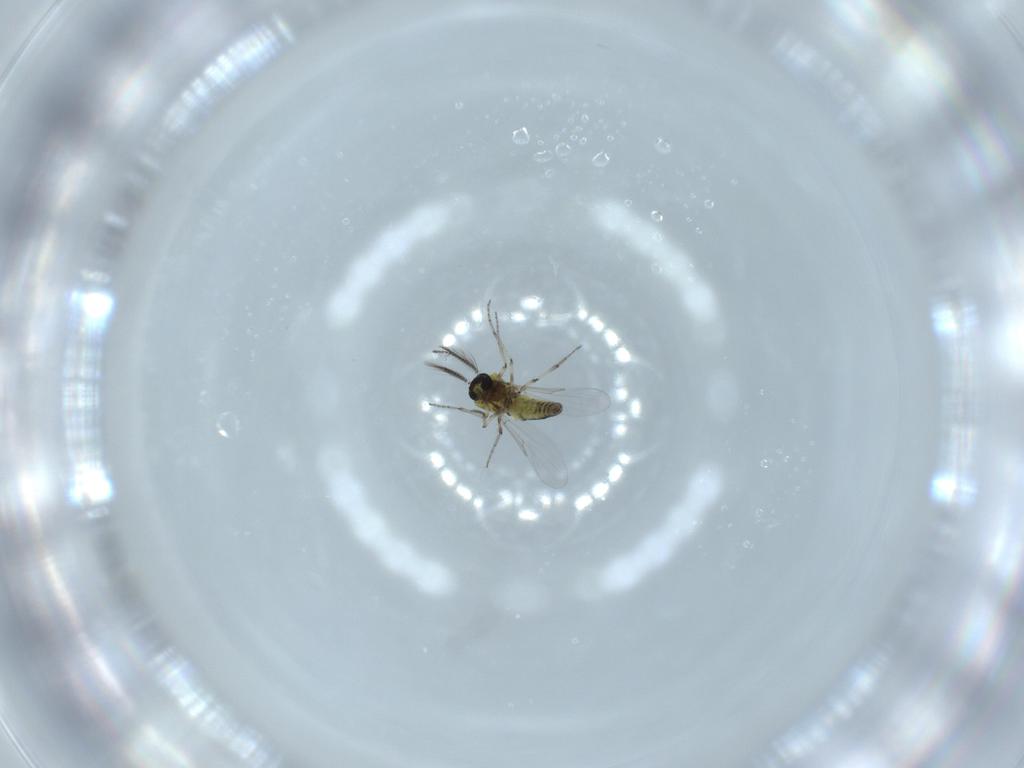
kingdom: Animalia
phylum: Arthropoda
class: Insecta
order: Diptera
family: Ceratopogonidae
